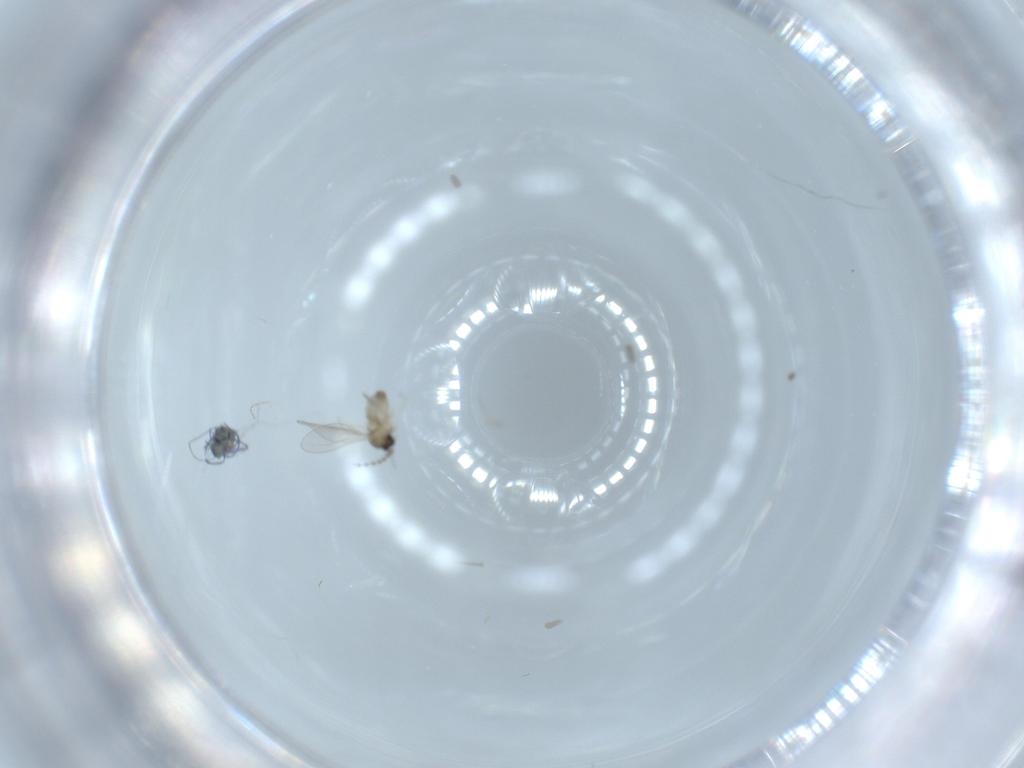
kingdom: Animalia
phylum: Arthropoda
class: Insecta
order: Diptera
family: Cecidomyiidae
